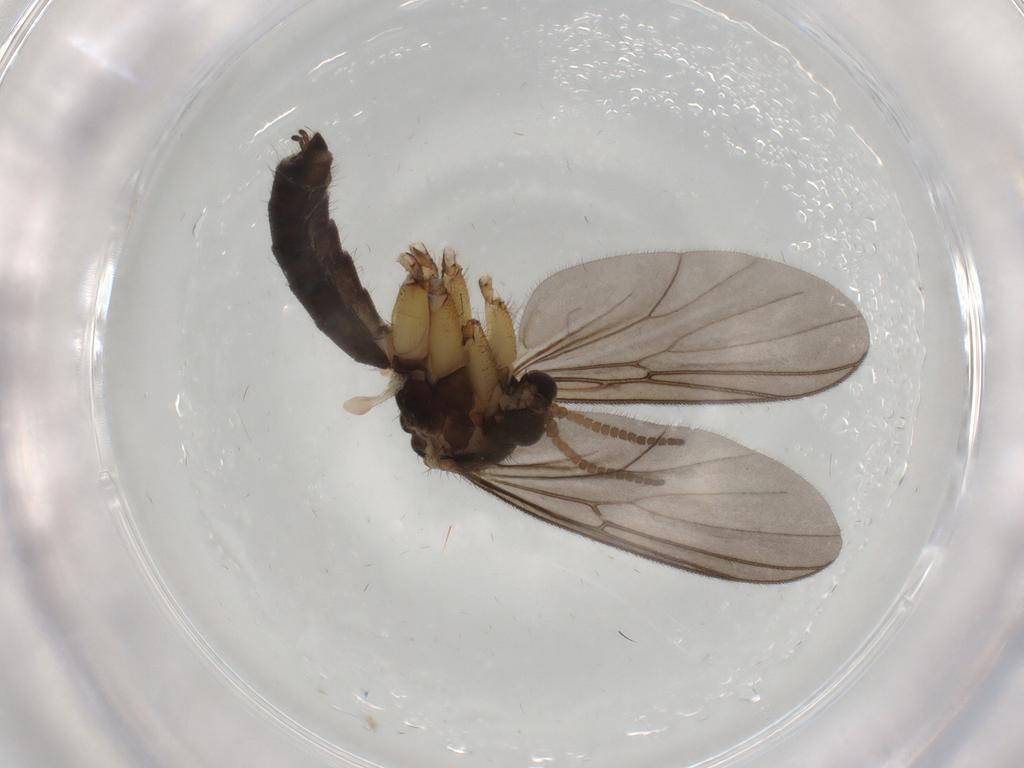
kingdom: Animalia
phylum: Arthropoda
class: Insecta
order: Diptera
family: Mycetophilidae
